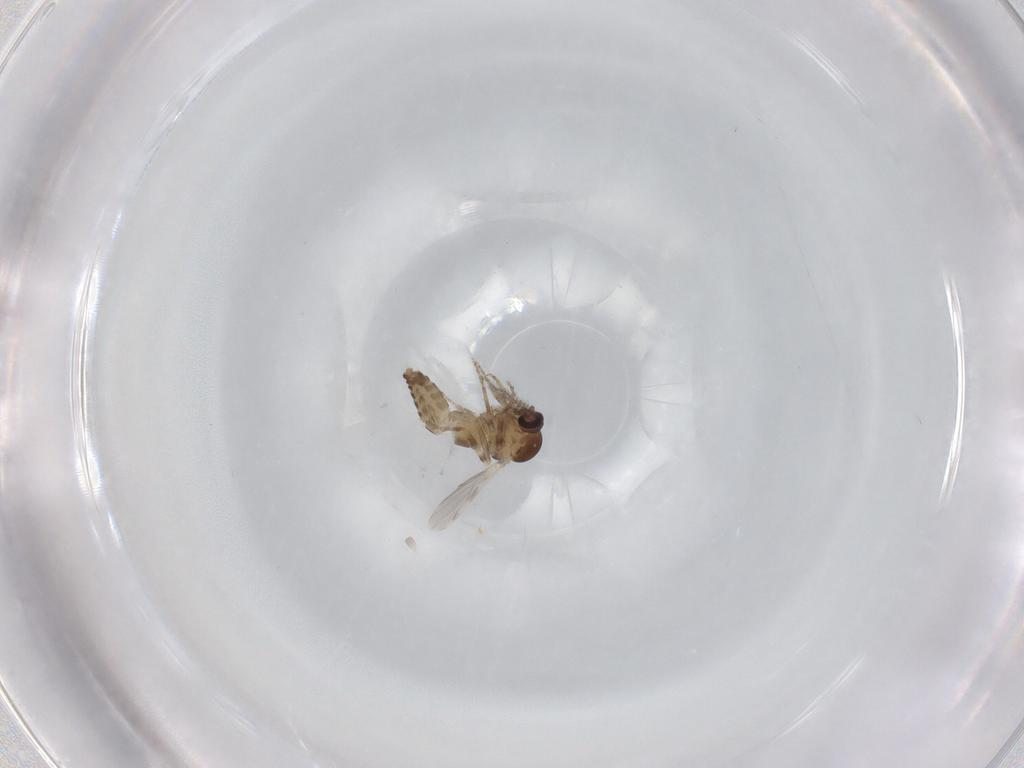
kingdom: Animalia
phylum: Arthropoda
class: Insecta
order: Diptera
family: Ceratopogonidae
